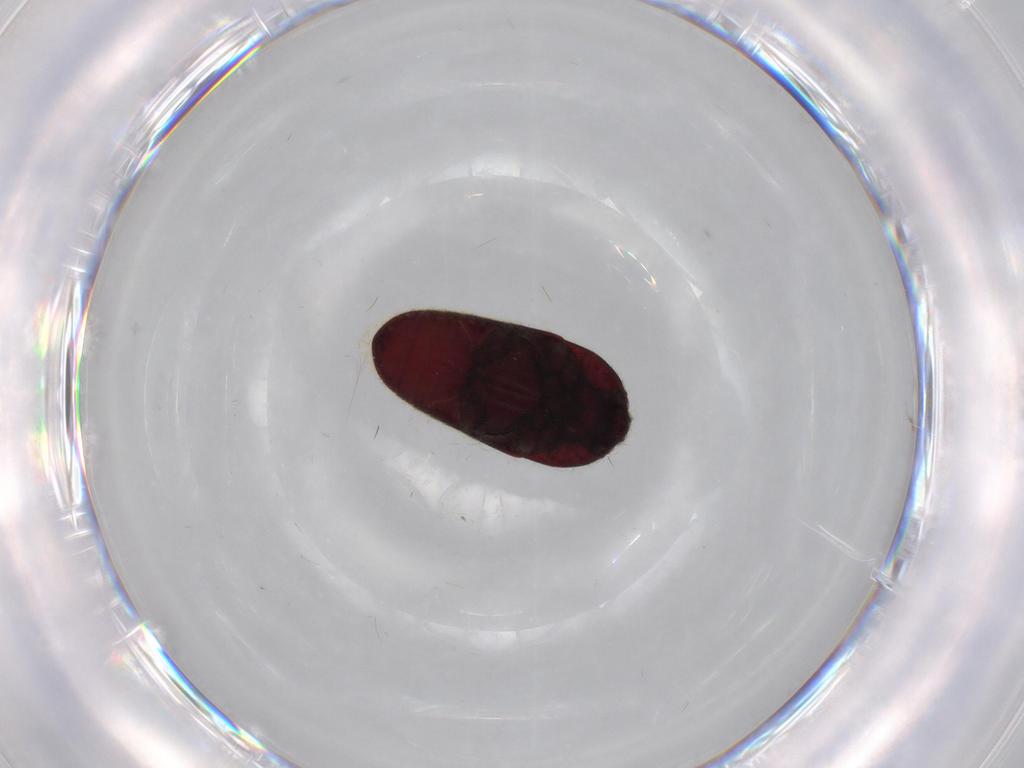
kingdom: Animalia
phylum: Arthropoda
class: Insecta
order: Coleoptera
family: Throscidae
